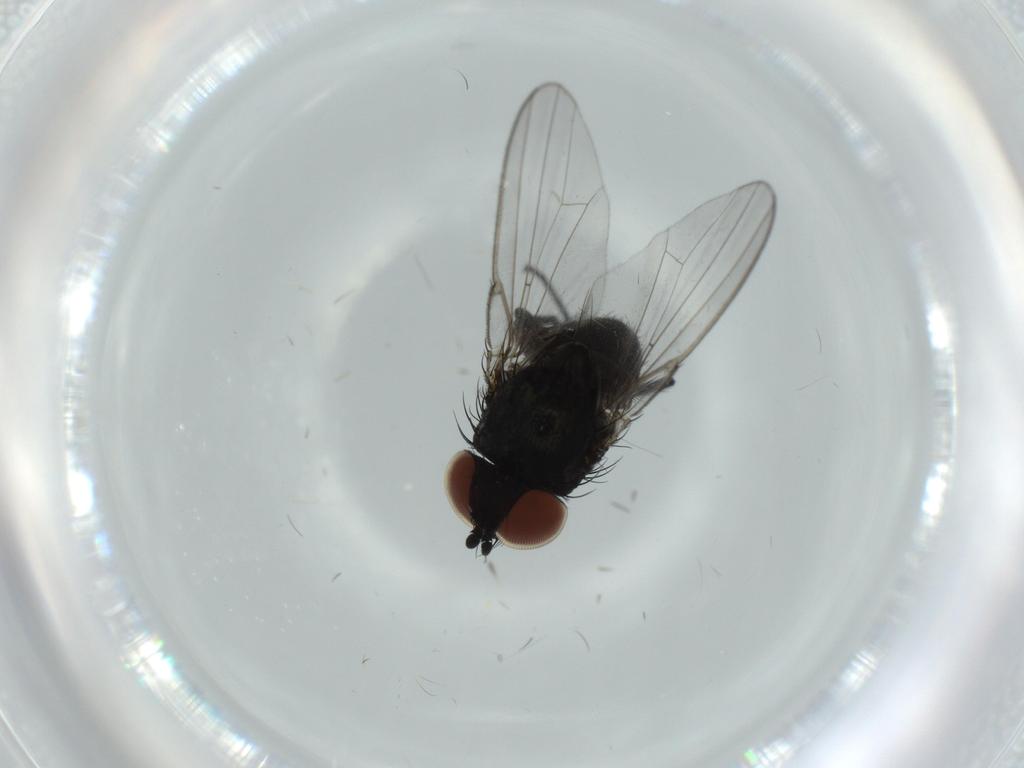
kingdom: Animalia
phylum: Arthropoda
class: Insecta
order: Diptera
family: Milichiidae
